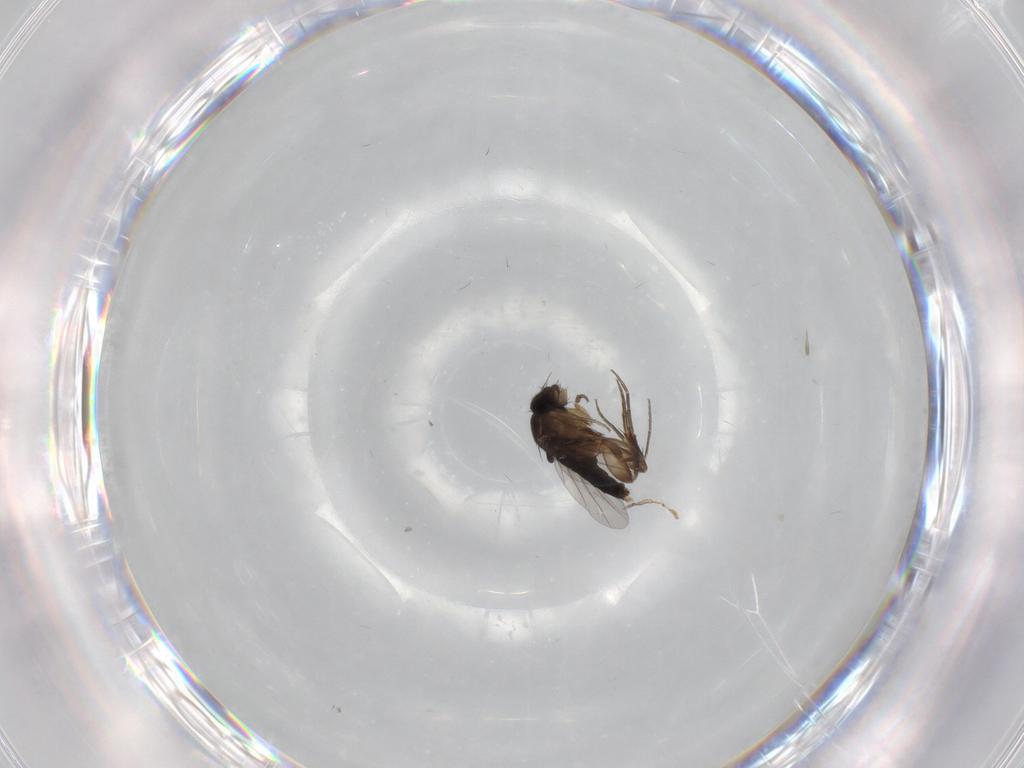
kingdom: Animalia
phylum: Arthropoda
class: Insecta
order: Diptera
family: Phoridae
